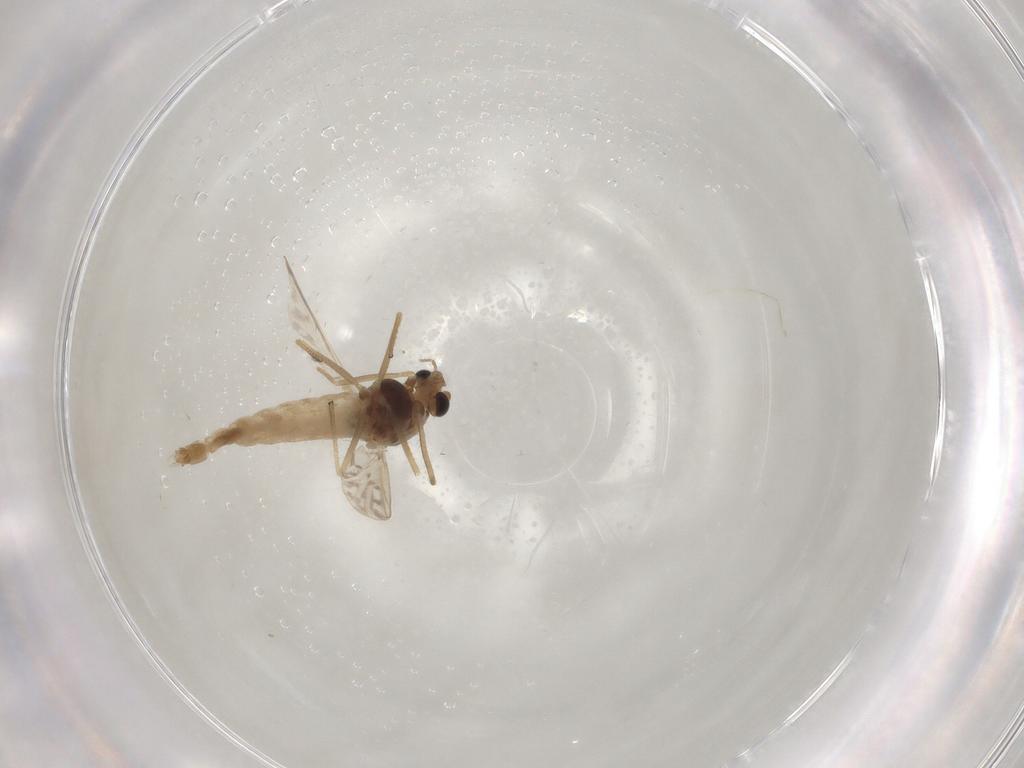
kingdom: Animalia
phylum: Arthropoda
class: Insecta
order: Diptera
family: Chironomidae
